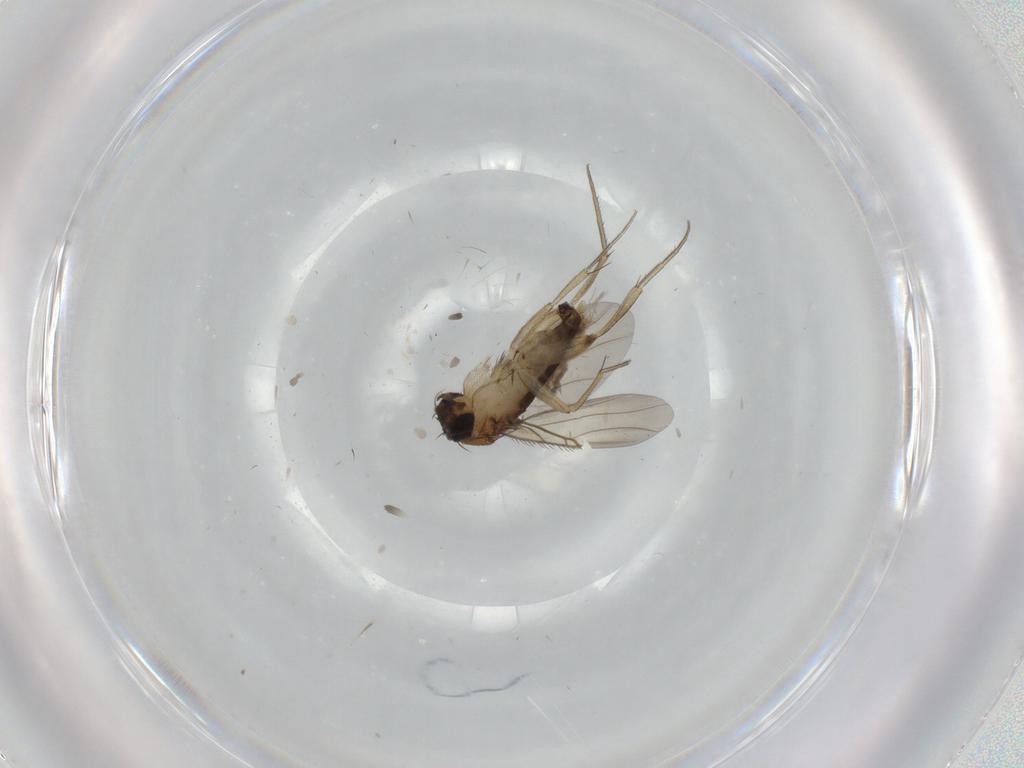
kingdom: Animalia
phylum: Arthropoda
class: Insecta
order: Diptera
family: Phoridae
